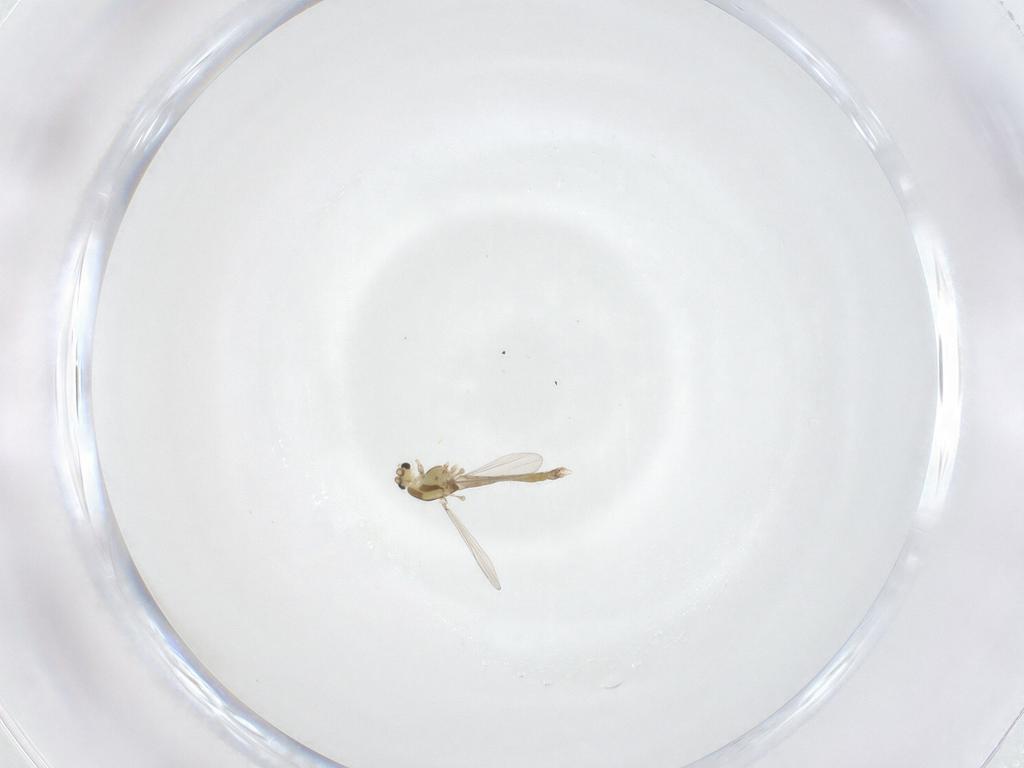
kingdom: Animalia
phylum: Arthropoda
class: Insecta
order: Diptera
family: Chironomidae
